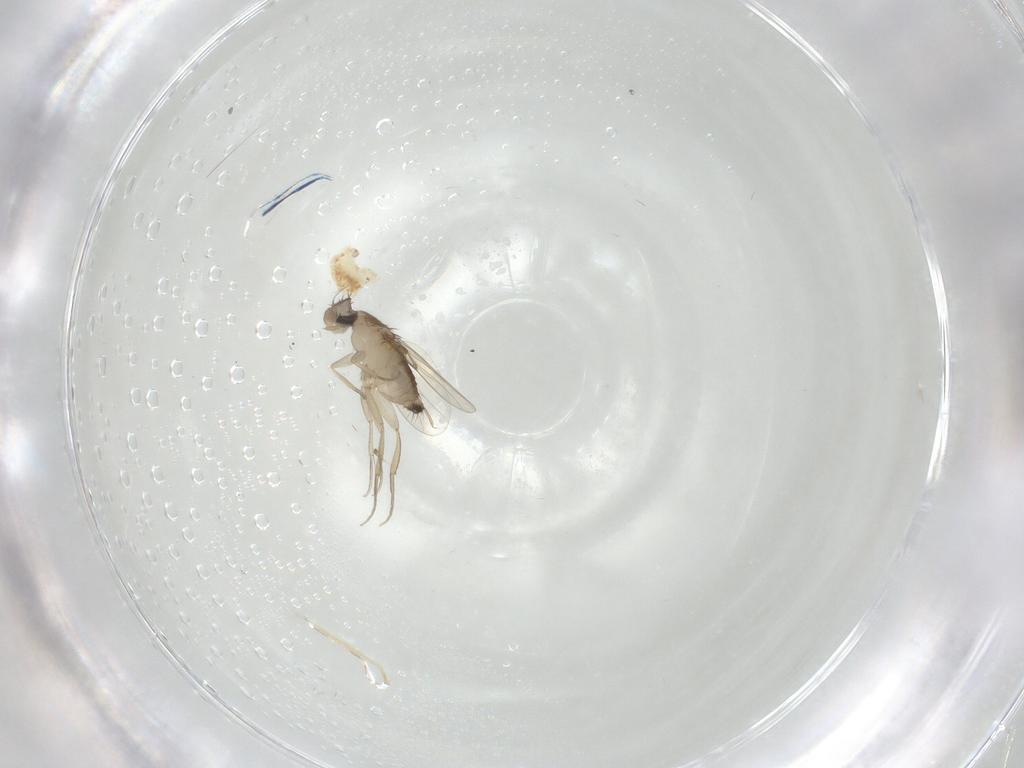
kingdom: Animalia
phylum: Arthropoda
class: Insecta
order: Diptera
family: Phoridae
